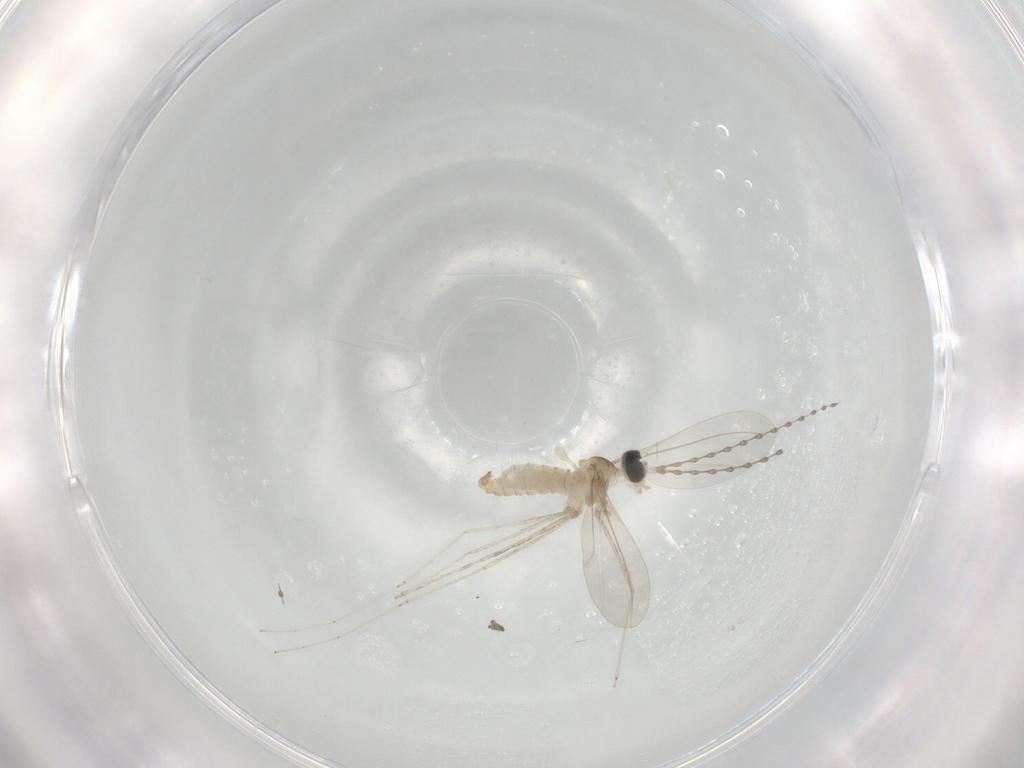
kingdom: Animalia
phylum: Arthropoda
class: Insecta
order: Diptera
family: Cecidomyiidae
